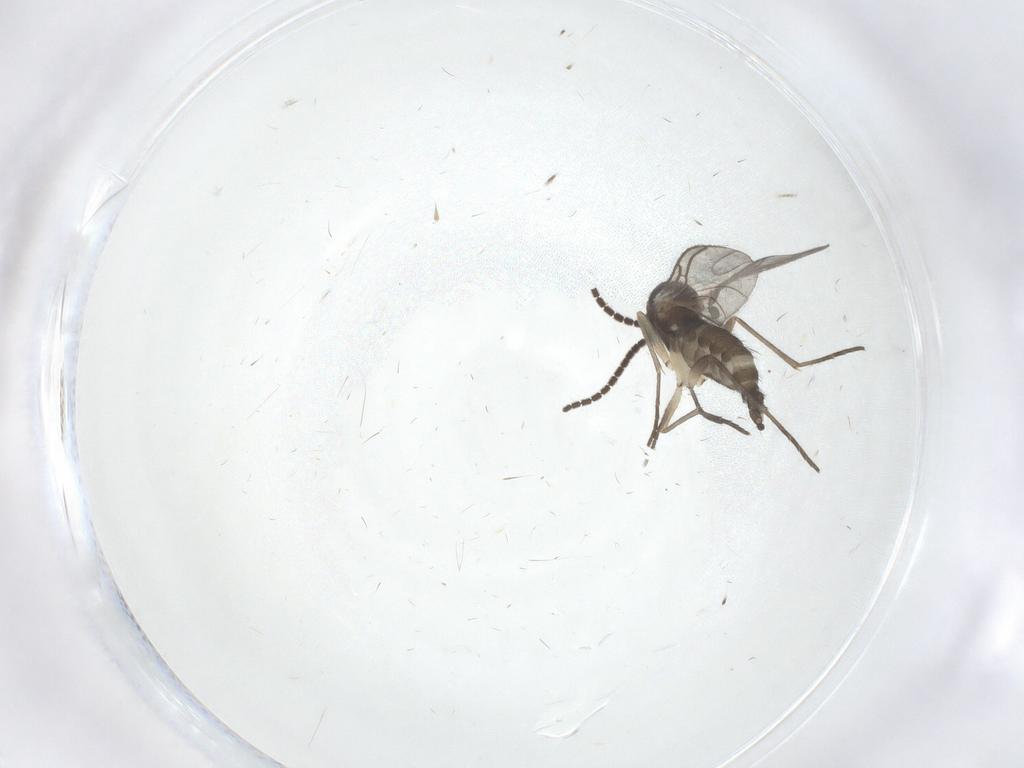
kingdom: Animalia
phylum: Arthropoda
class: Insecta
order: Diptera
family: Sciaridae
